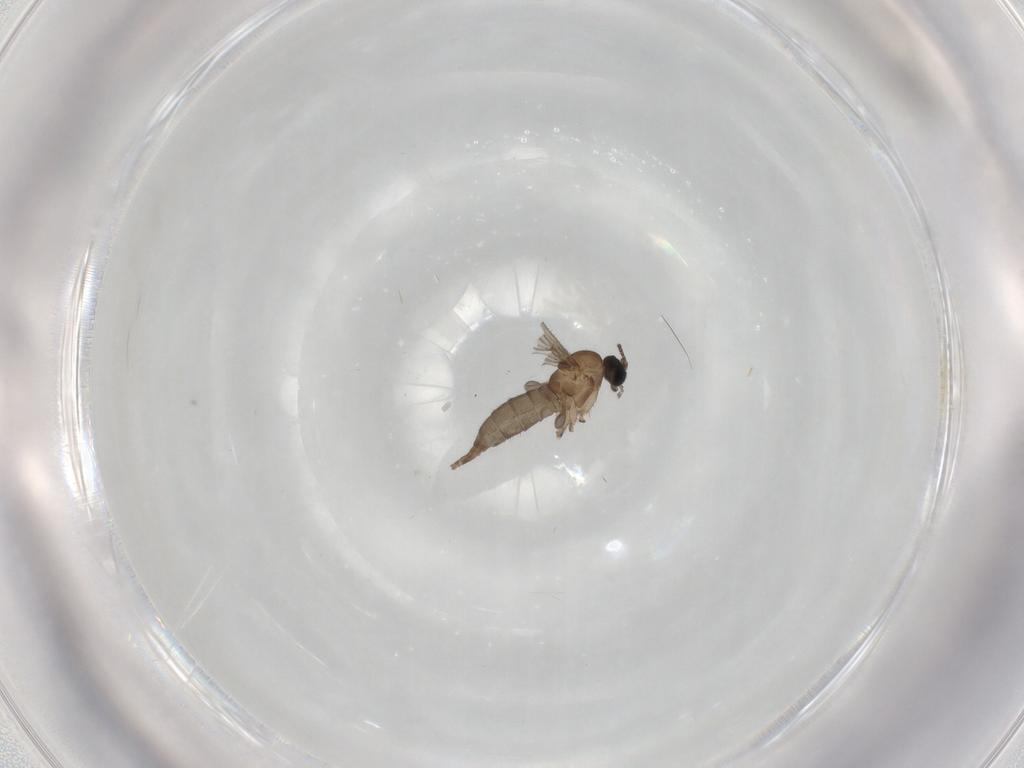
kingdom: Animalia
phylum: Arthropoda
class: Insecta
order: Diptera
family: Sciaridae
